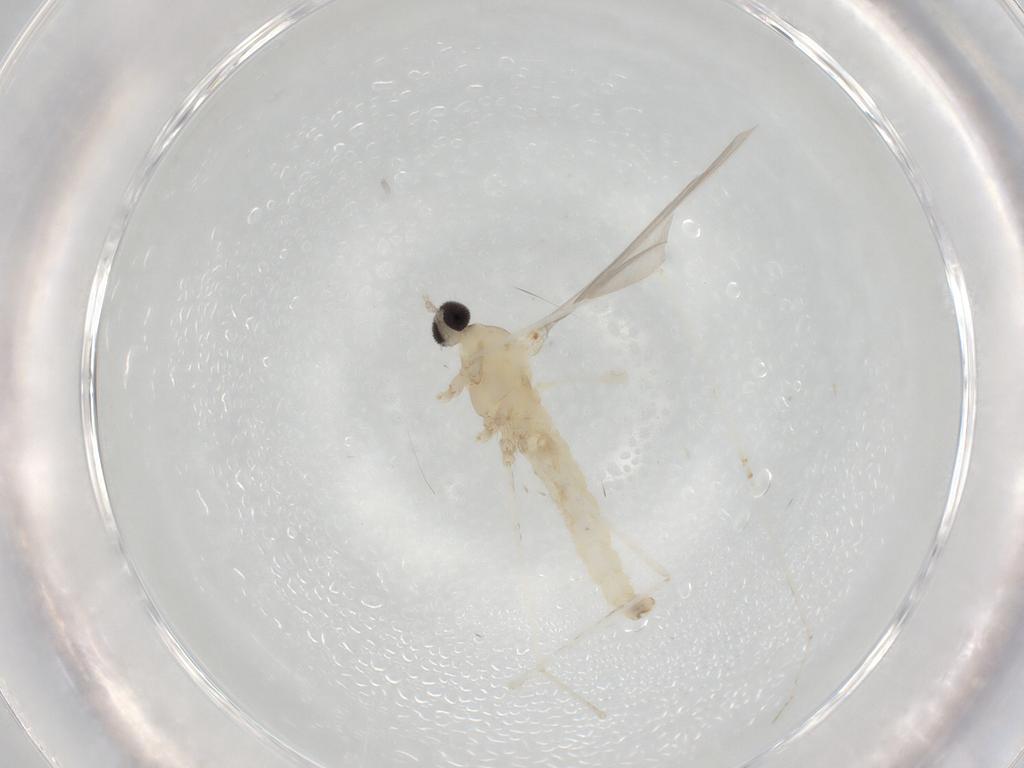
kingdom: Animalia
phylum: Arthropoda
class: Insecta
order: Diptera
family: Cecidomyiidae
